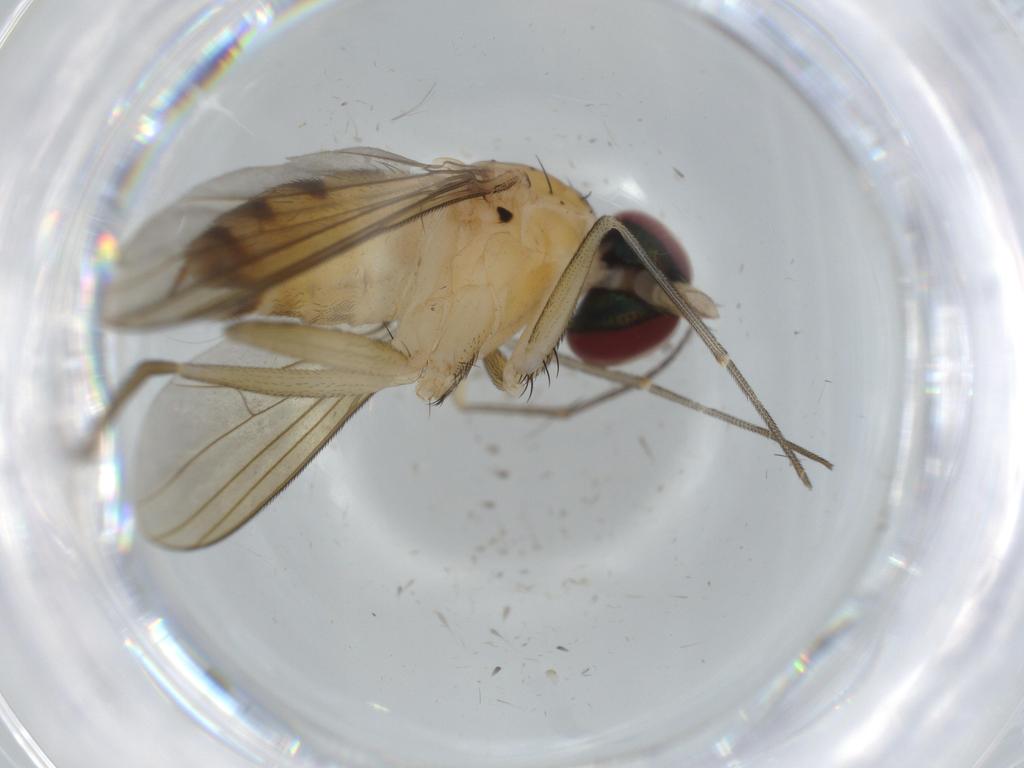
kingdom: Animalia
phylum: Arthropoda
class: Insecta
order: Diptera
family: Dolichopodidae
